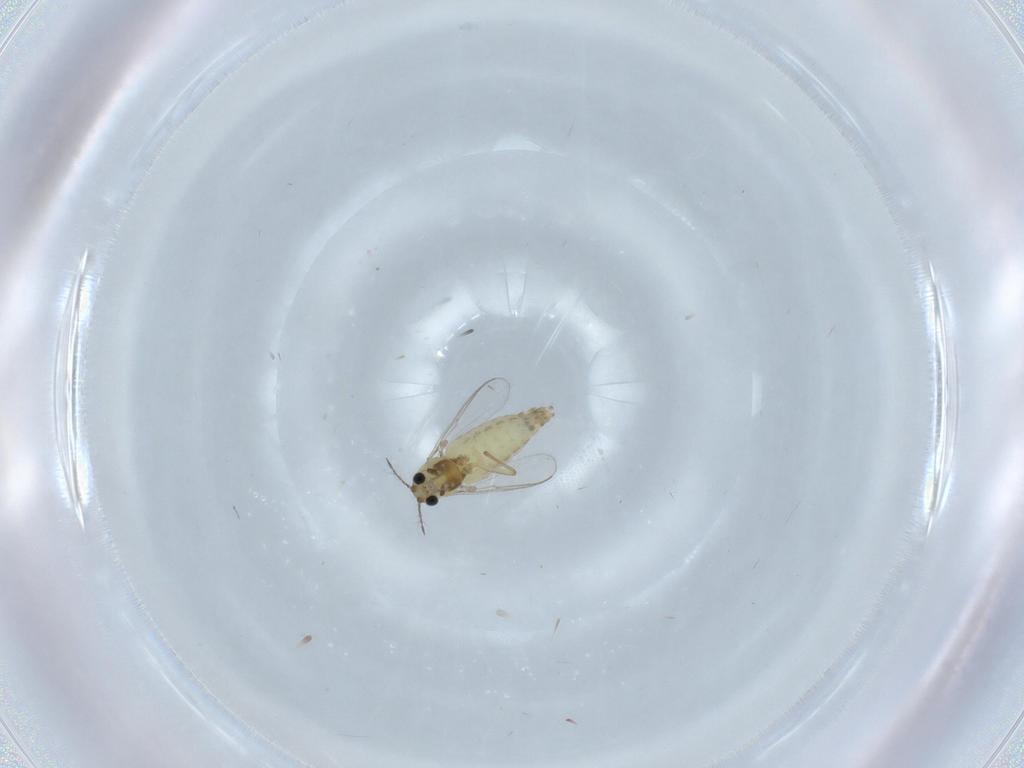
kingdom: Animalia
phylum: Arthropoda
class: Insecta
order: Diptera
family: Chironomidae
